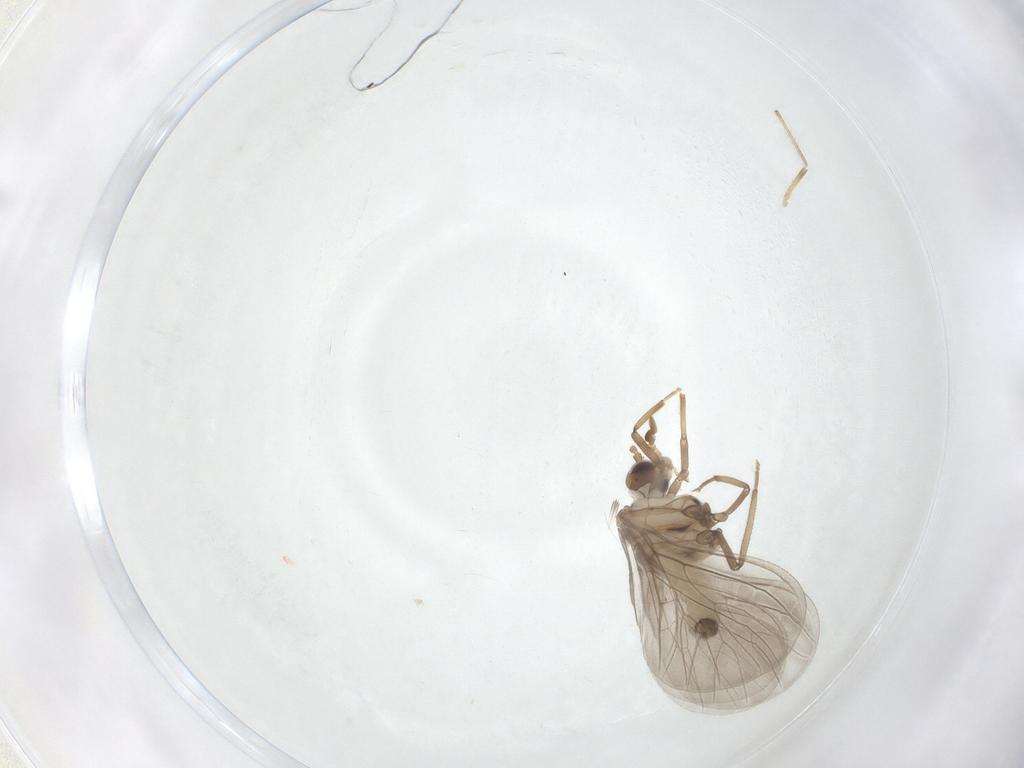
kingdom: Animalia
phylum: Arthropoda
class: Insecta
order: Neuroptera
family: Coniopterygidae
